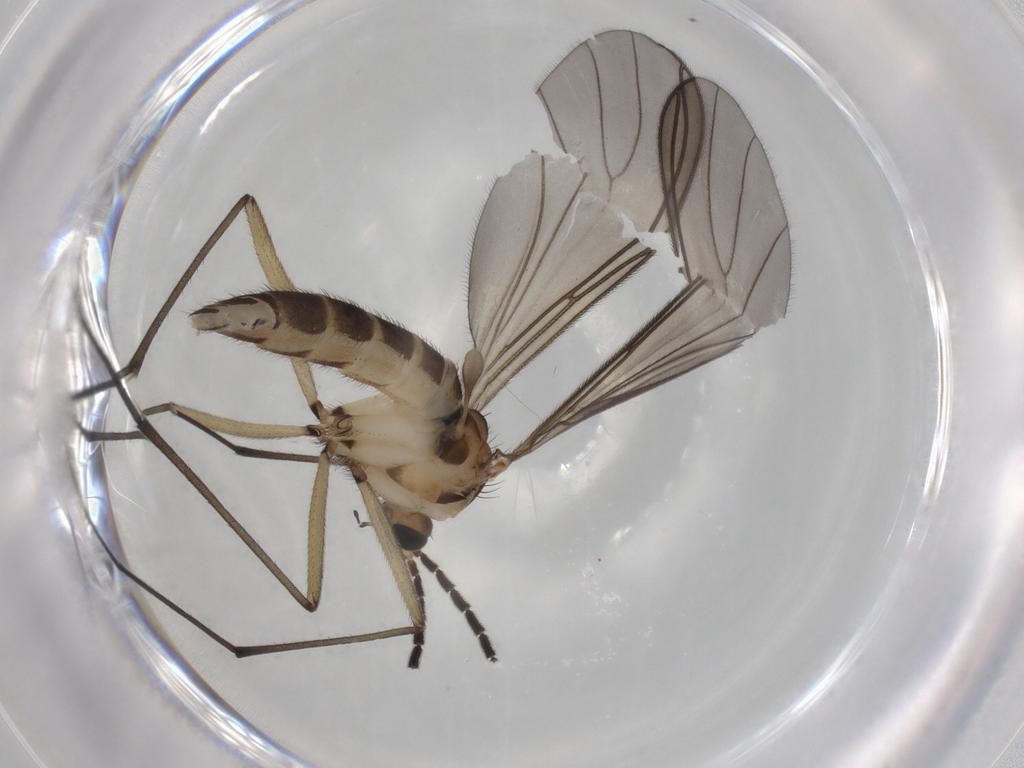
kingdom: Animalia
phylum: Arthropoda
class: Insecta
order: Diptera
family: Sciaridae
